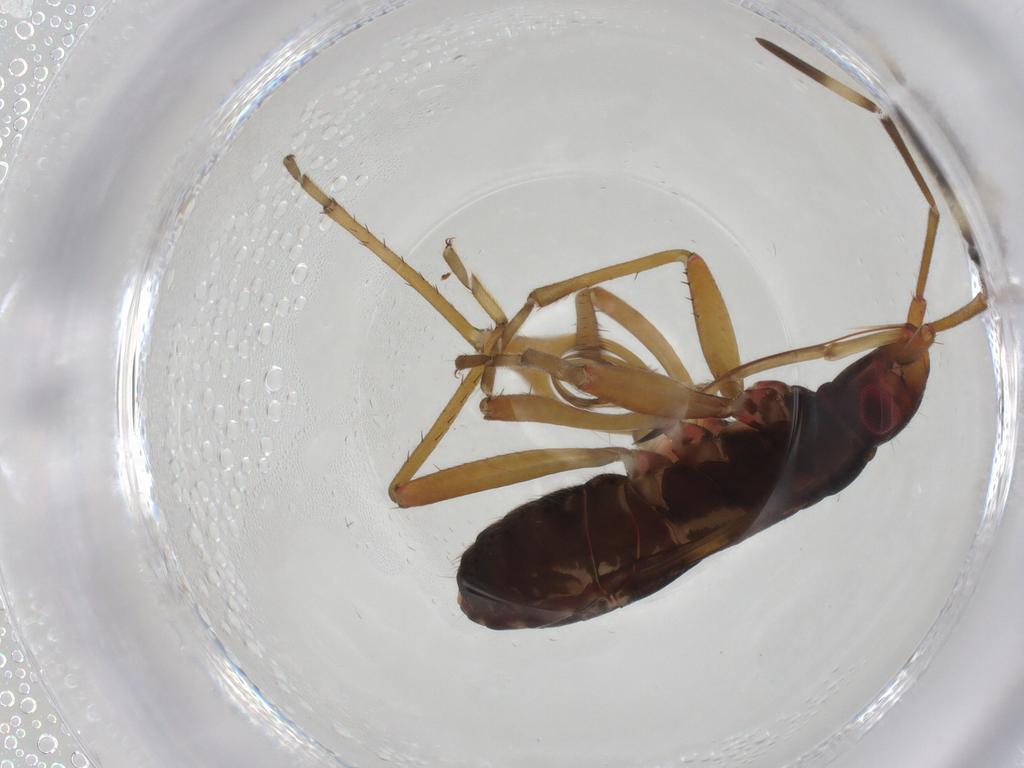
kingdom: Animalia
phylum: Arthropoda
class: Insecta
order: Hemiptera
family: Rhyparochromidae
